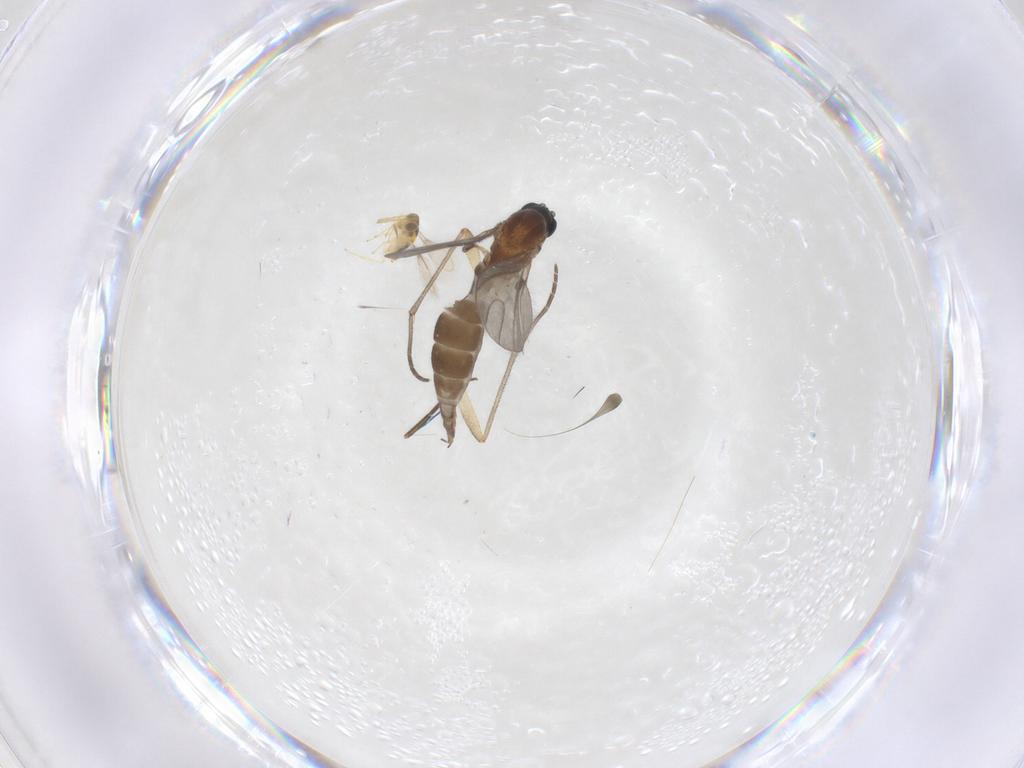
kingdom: Animalia
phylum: Arthropoda
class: Insecta
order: Diptera
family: Sciaridae
